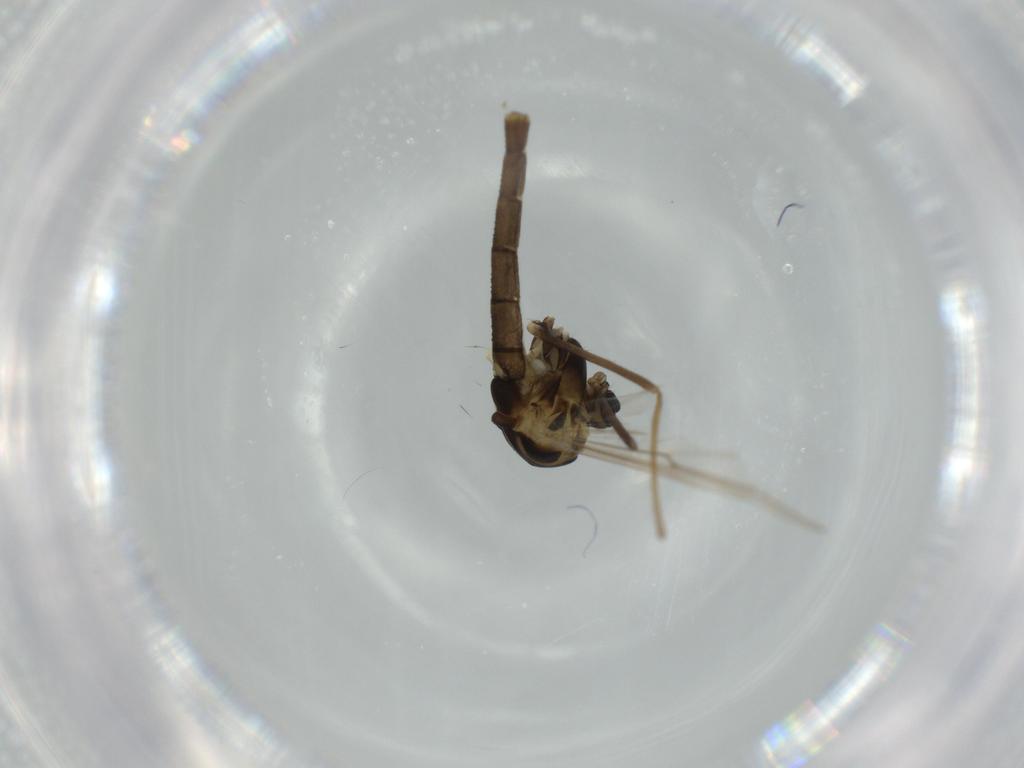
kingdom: Animalia
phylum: Arthropoda
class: Insecta
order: Diptera
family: Chironomidae
